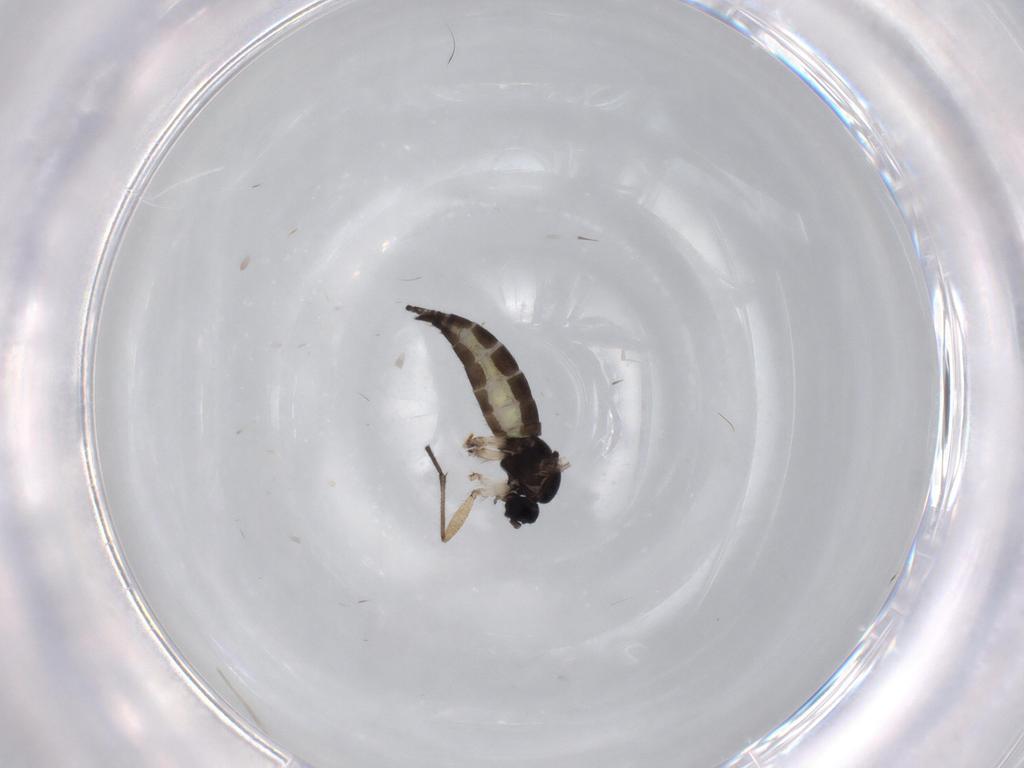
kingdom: Animalia
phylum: Arthropoda
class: Insecta
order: Diptera
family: Sciaridae
